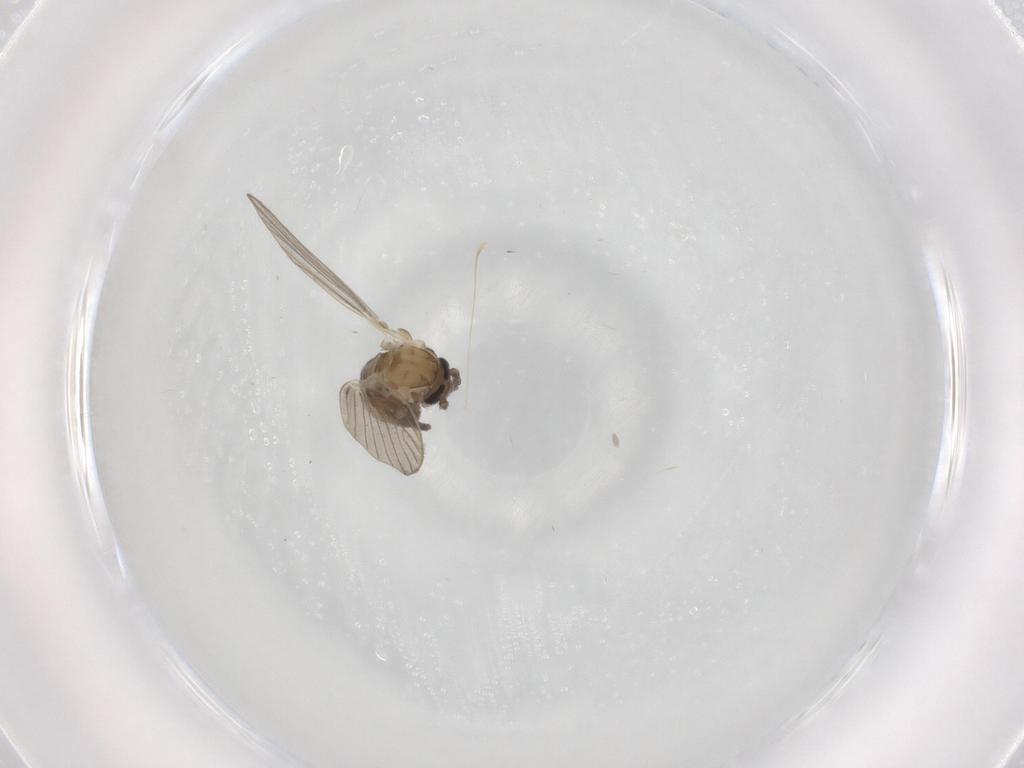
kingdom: Animalia
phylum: Arthropoda
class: Insecta
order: Diptera
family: Psychodidae
